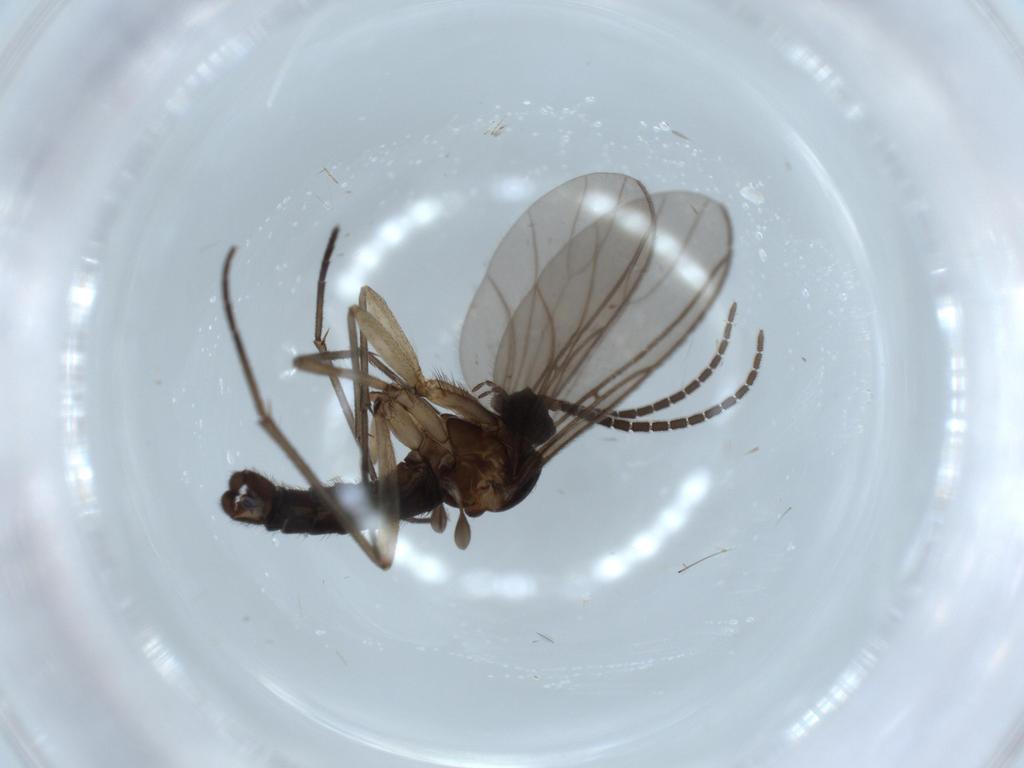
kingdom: Animalia
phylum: Arthropoda
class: Insecta
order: Diptera
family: Sciaridae
